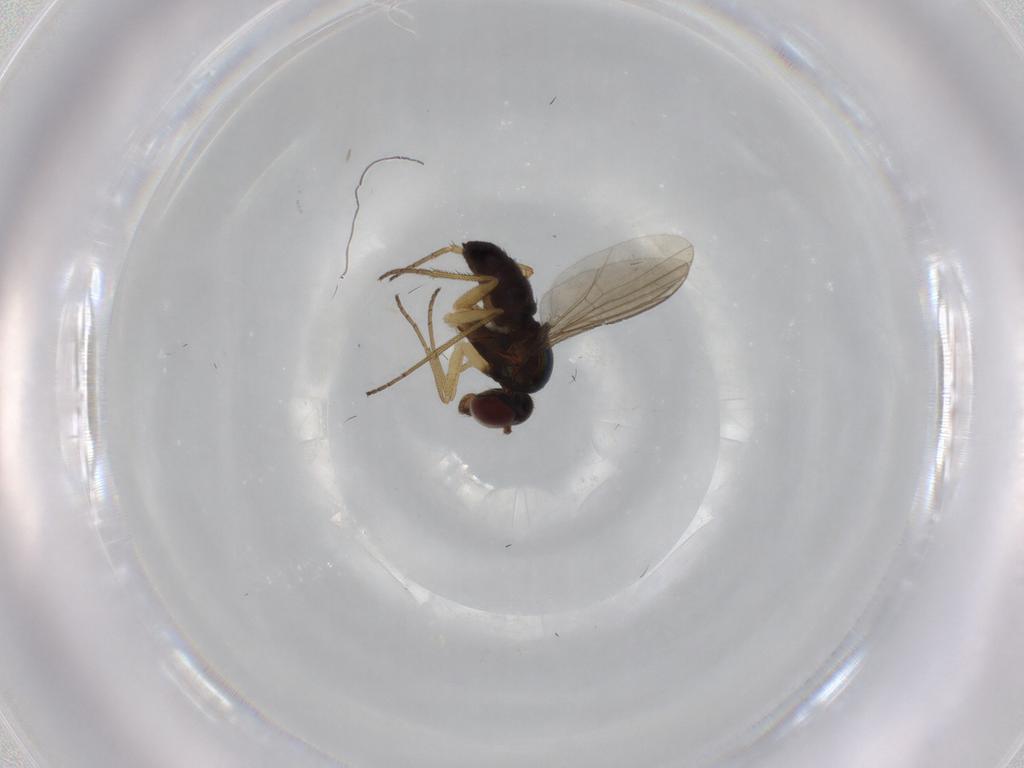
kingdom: Animalia
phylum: Arthropoda
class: Insecta
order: Diptera
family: Dolichopodidae
